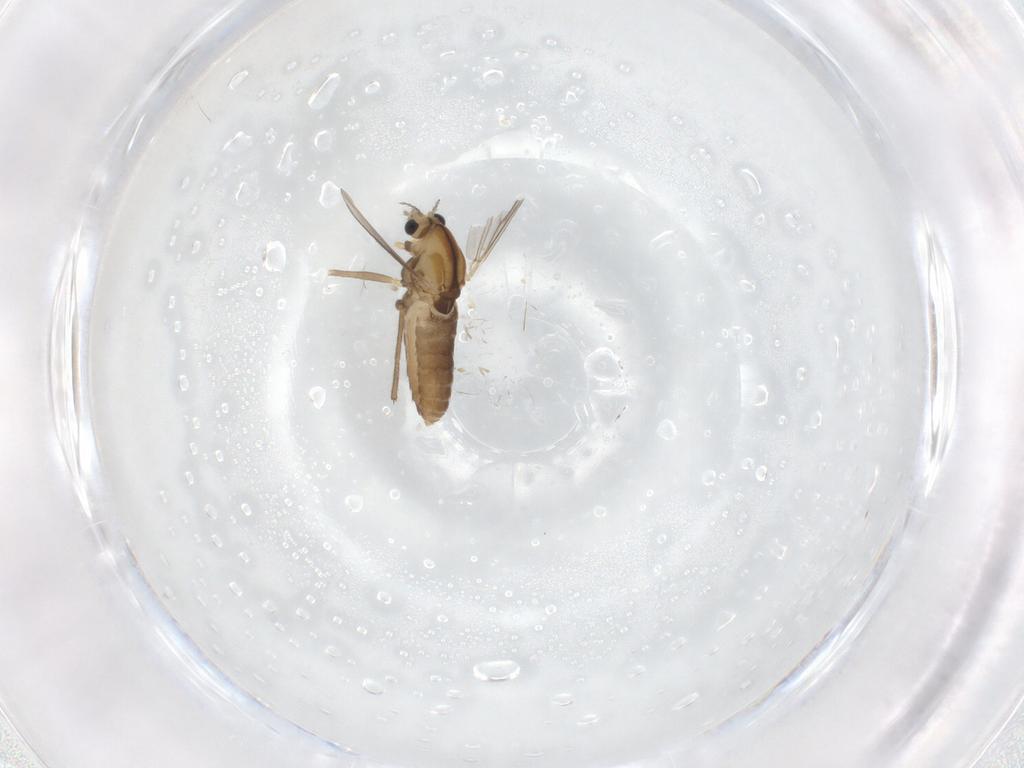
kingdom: Animalia
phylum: Arthropoda
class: Insecta
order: Diptera
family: Chironomidae
